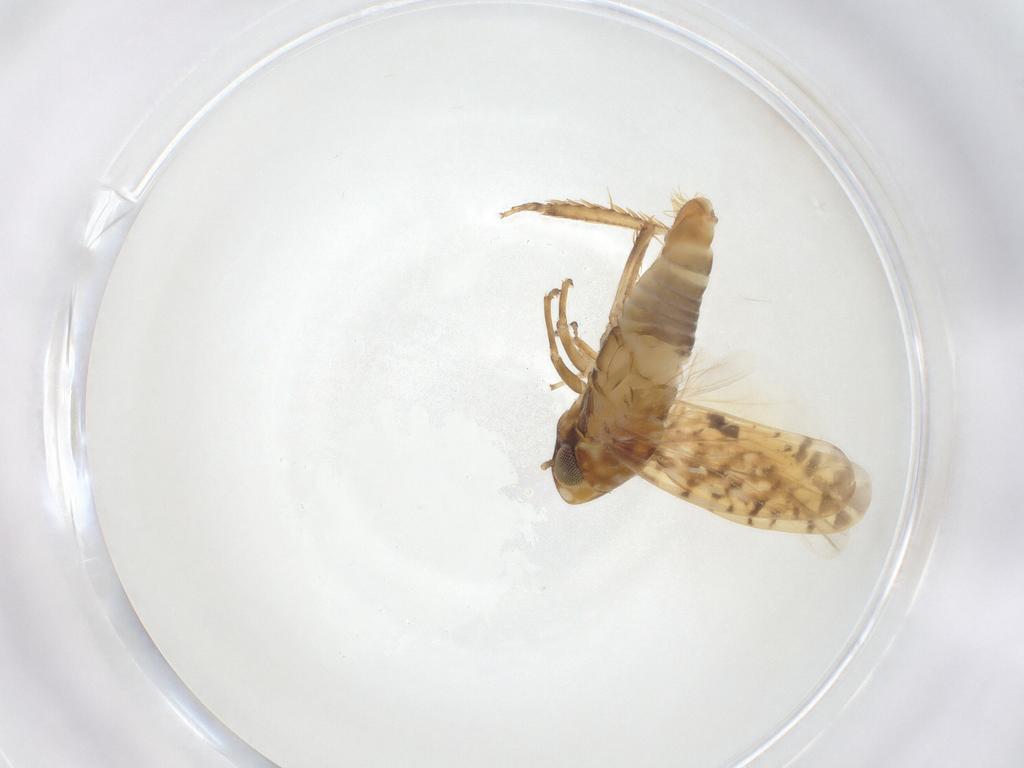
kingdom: Animalia
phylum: Arthropoda
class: Insecta
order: Hemiptera
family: Cicadellidae
